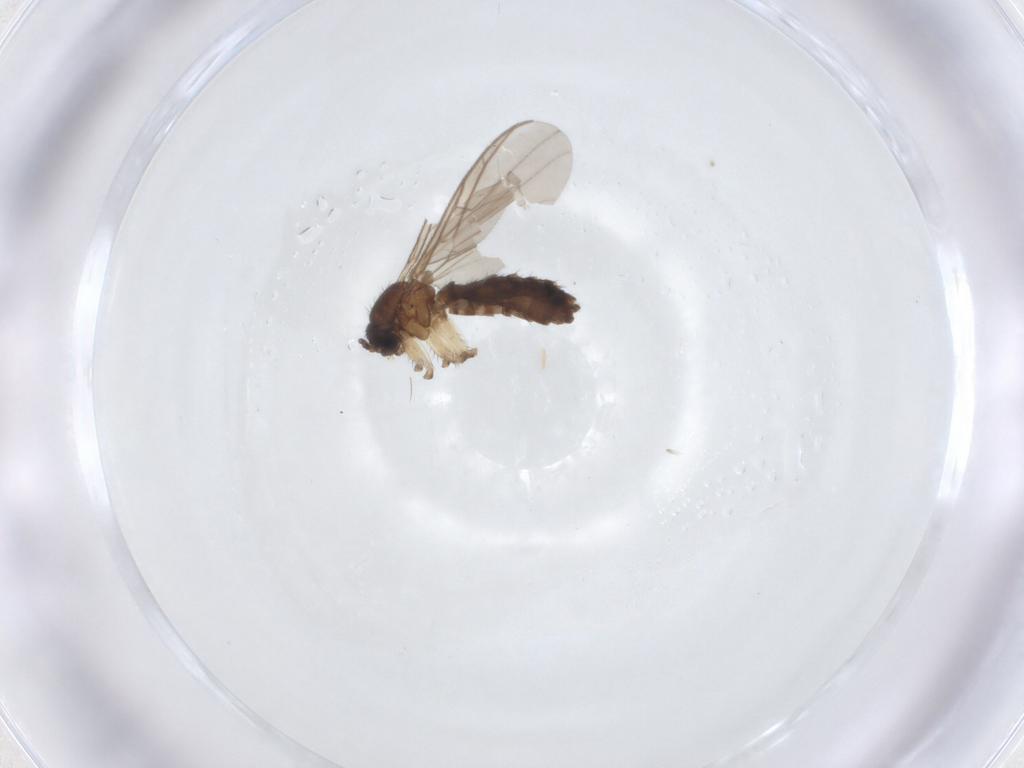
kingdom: Animalia
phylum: Arthropoda
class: Insecta
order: Diptera
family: Keroplatidae
